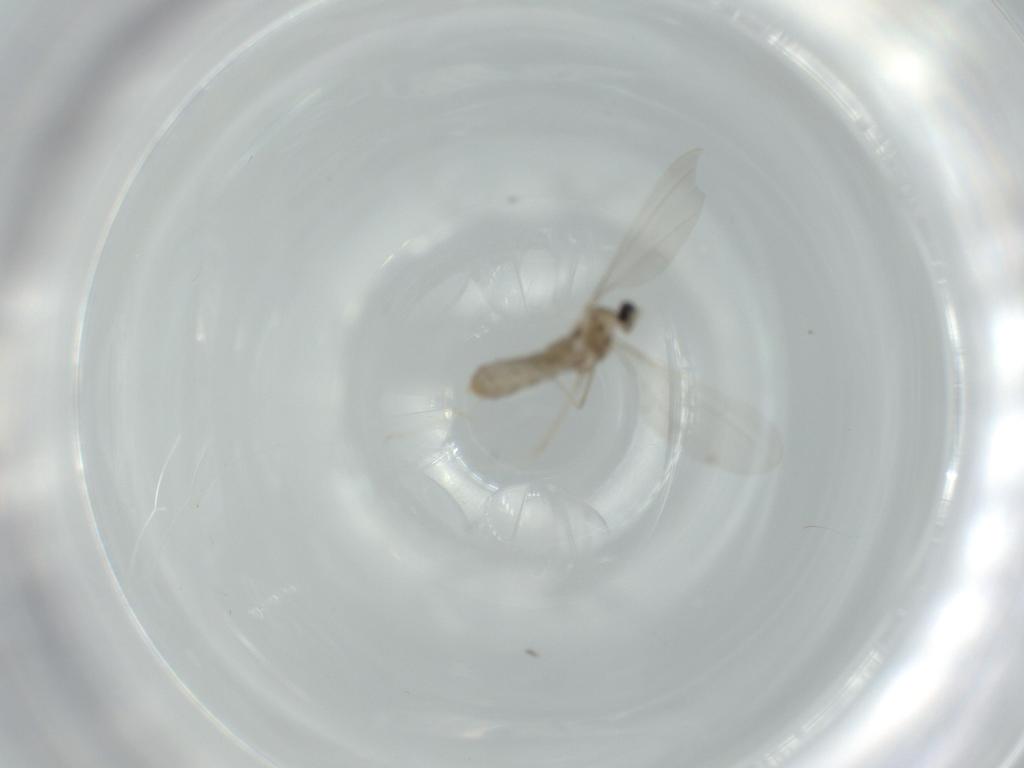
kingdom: Animalia
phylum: Arthropoda
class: Insecta
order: Diptera
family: Cecidomyiidae
